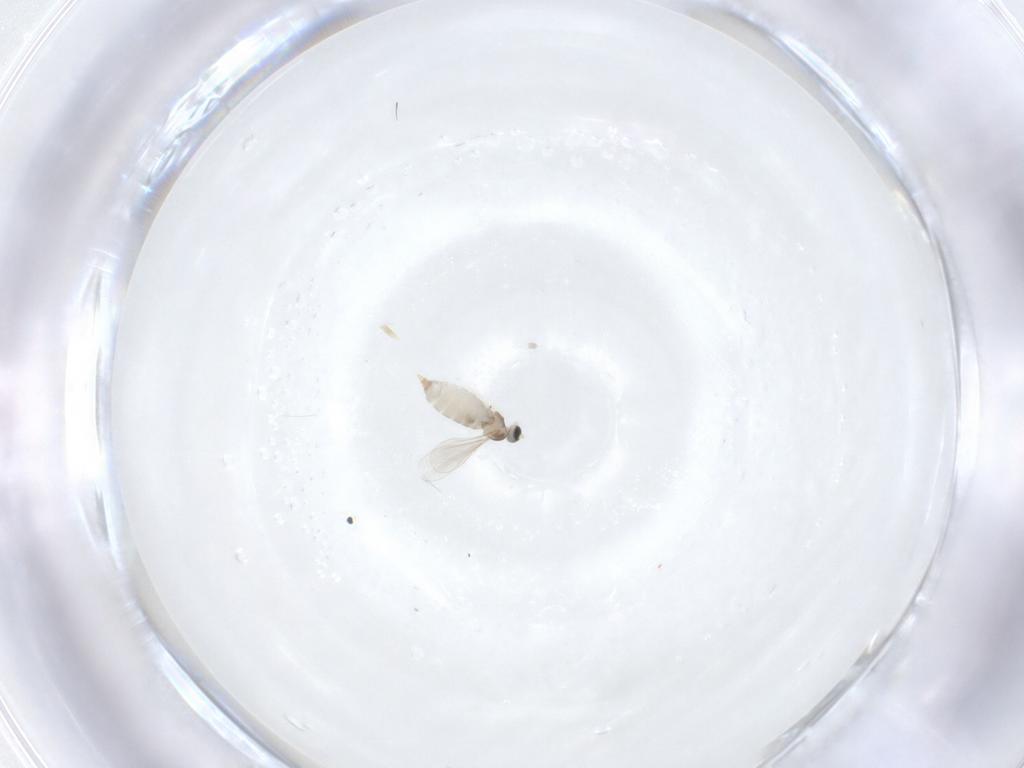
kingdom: Animalia
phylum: Arthropoda
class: Insecta
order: Diptera
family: Cecidomyiidae
